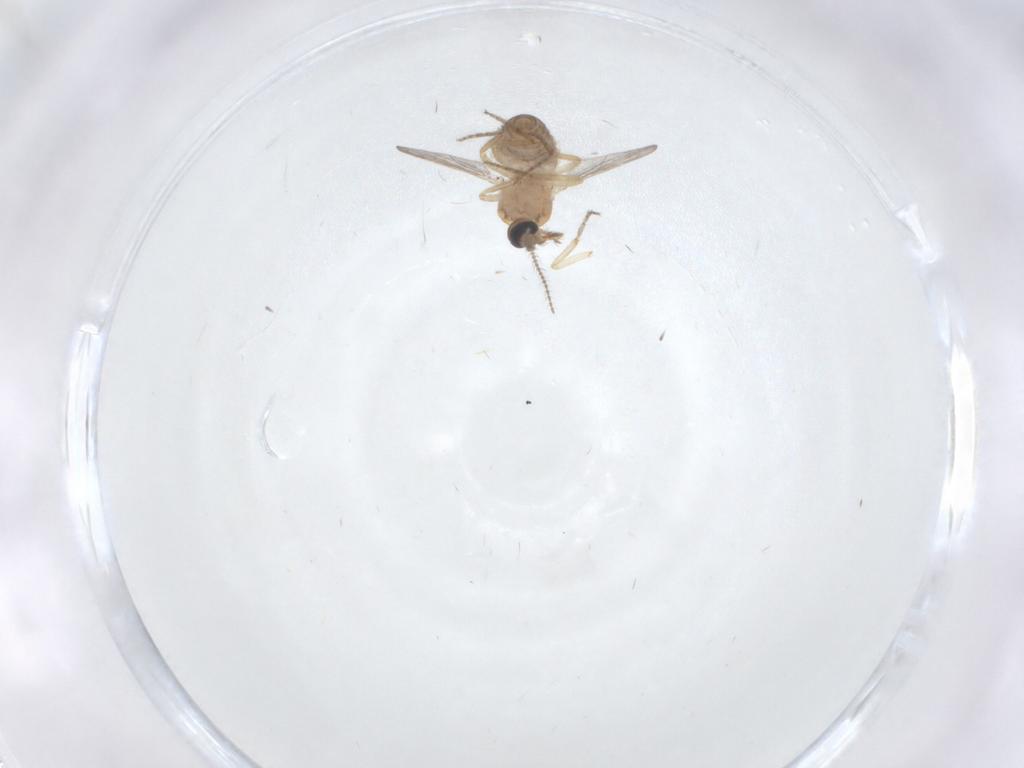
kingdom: Animalia
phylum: Arthropoda
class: Insecta
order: Diptera
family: Ceratopogonidae
